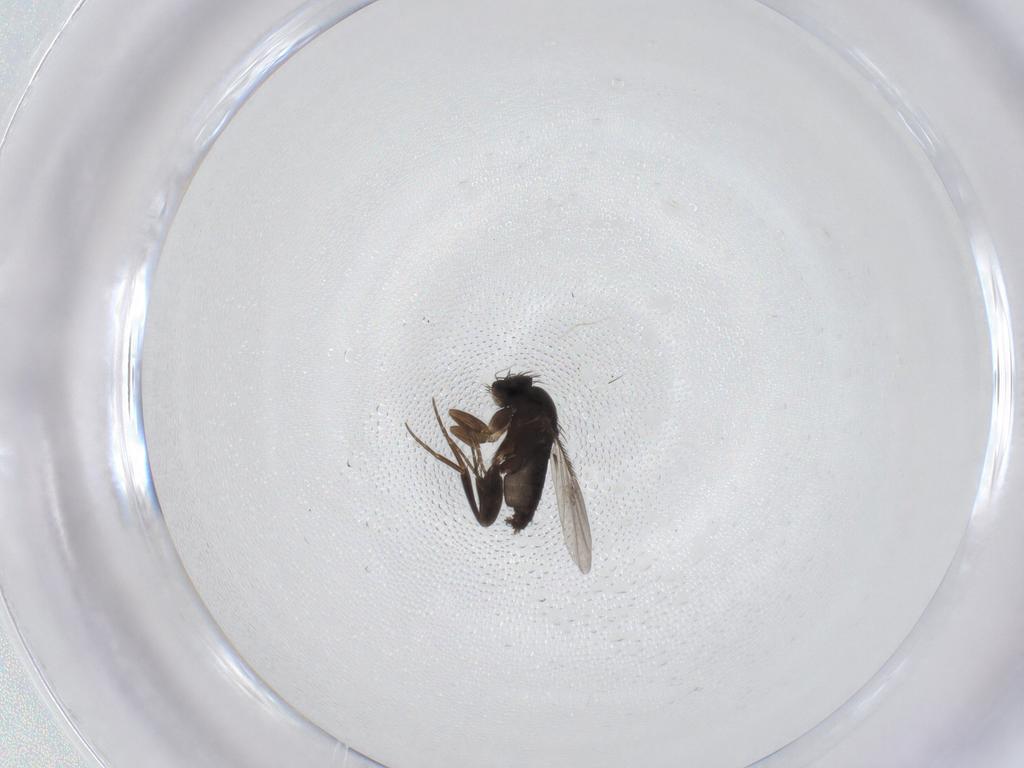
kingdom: Animalia
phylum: Arthropoda
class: Insecta
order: Diptera
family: Phoridae
